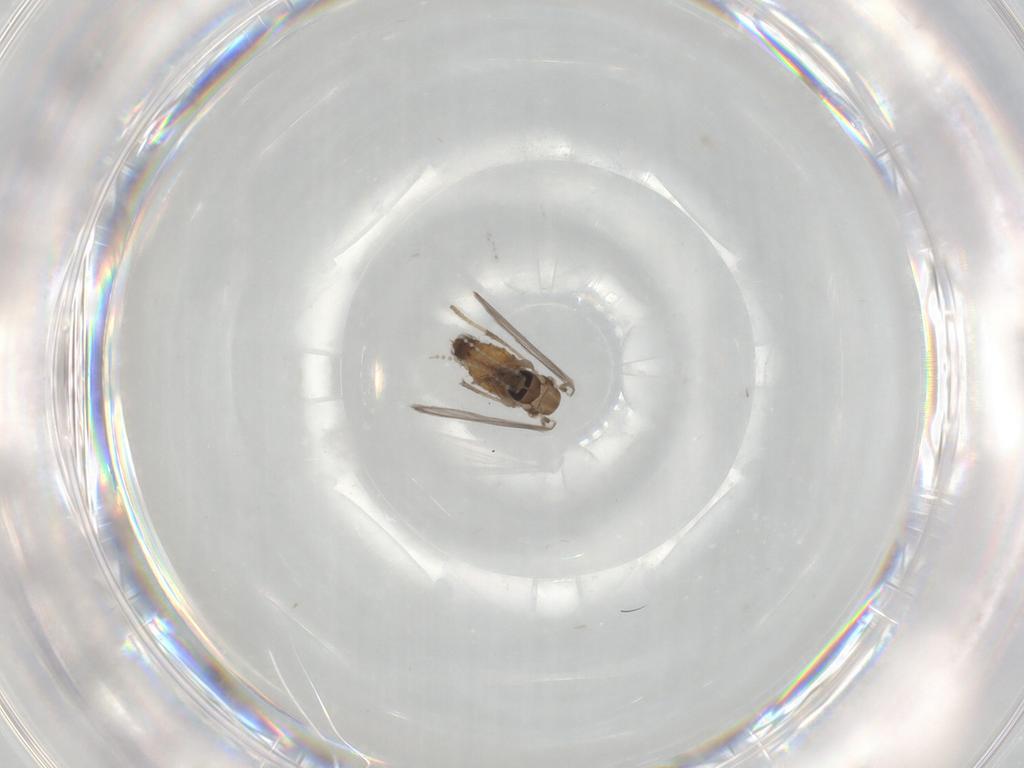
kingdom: Animalia
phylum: Arthropoda
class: Insecta
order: Diptera
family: Psychodidae
